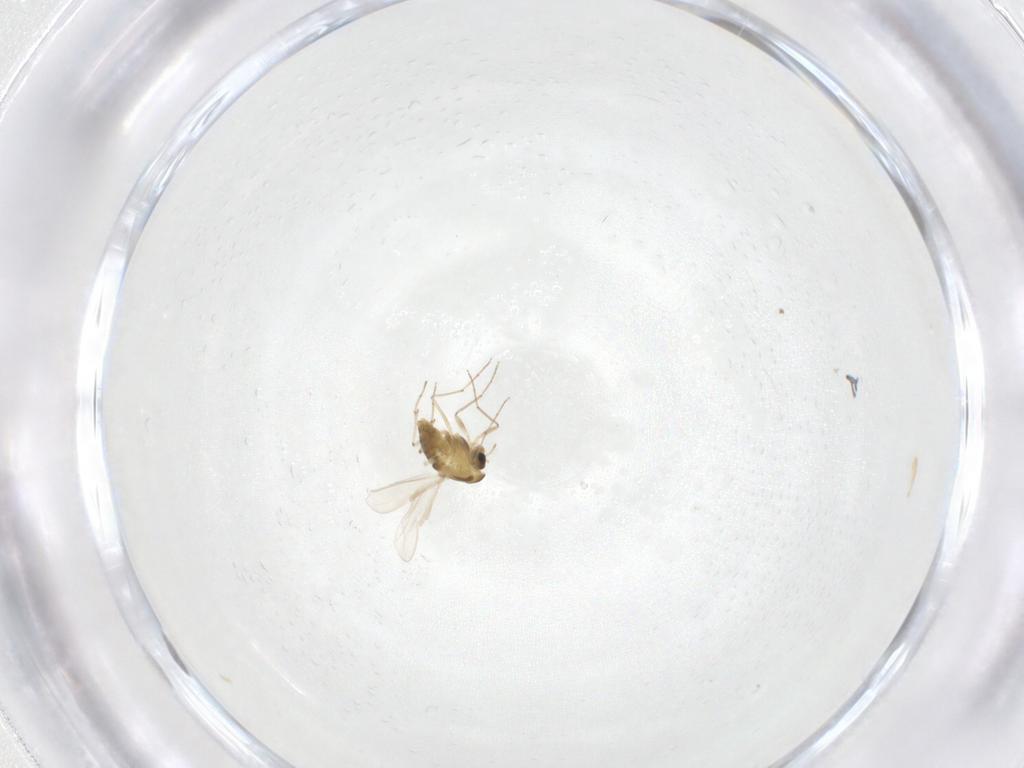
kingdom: Animalia
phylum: Arthropoda
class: Insecta
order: Diptera
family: Chironomidae
